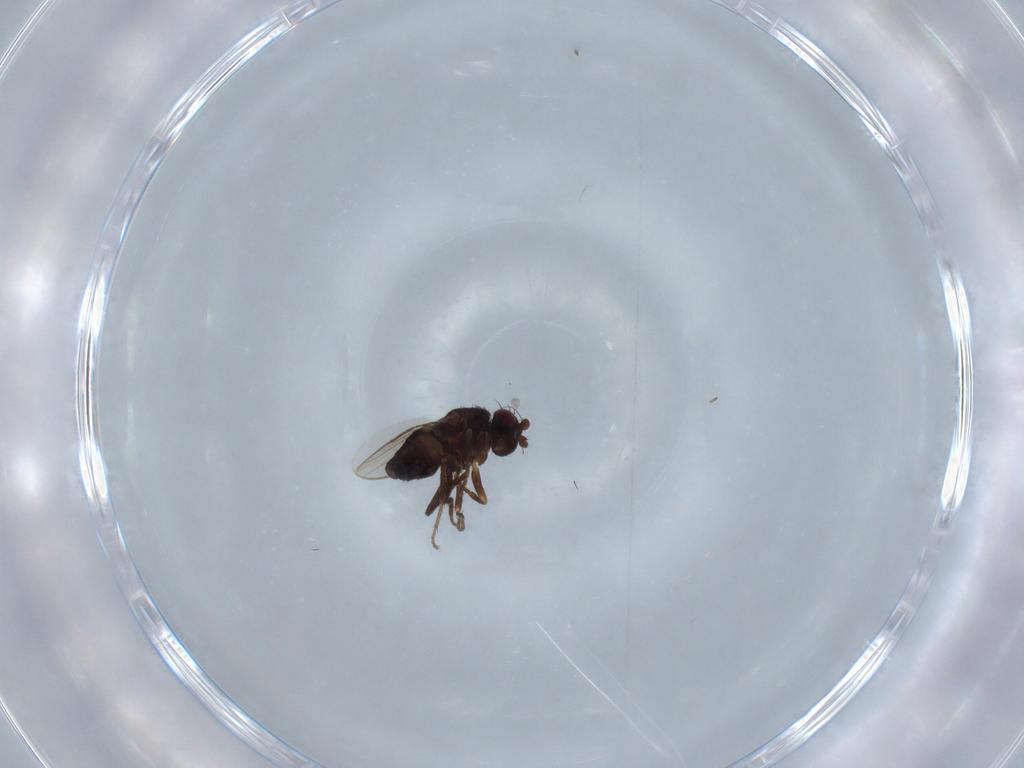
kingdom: Animalia
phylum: Arthropoda
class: Insecta
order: Diptera
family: Sphaeroceridae
